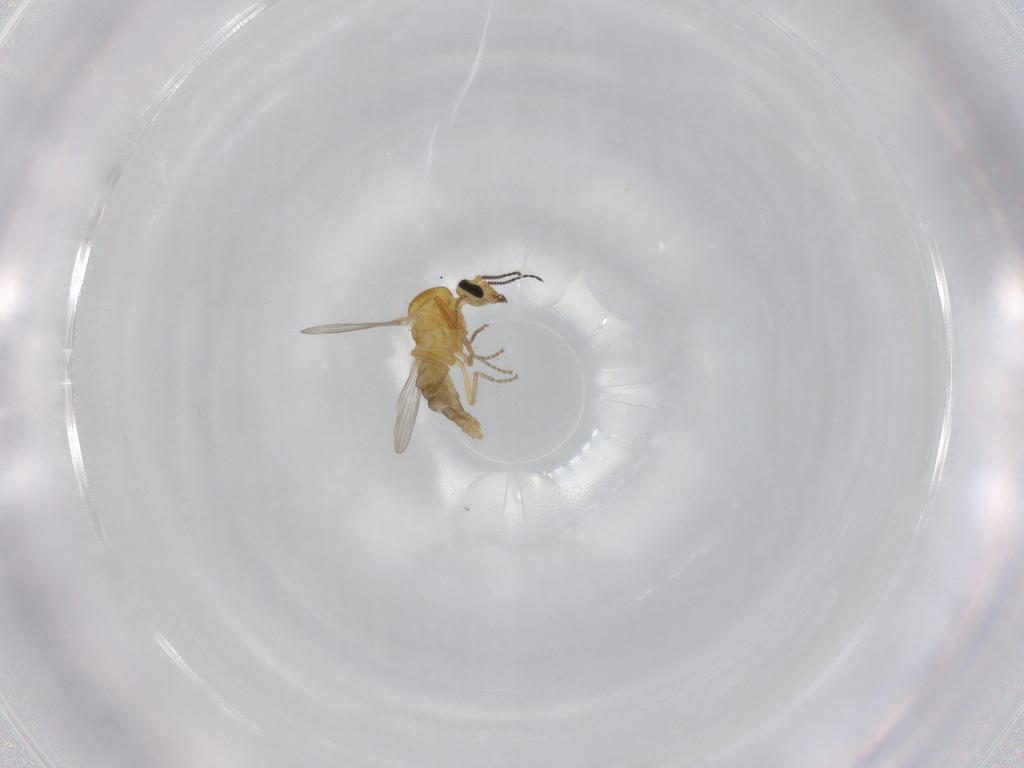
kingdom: Animalia
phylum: Arthropoda
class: Insecta
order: Diptera
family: Ceratopogonidae
